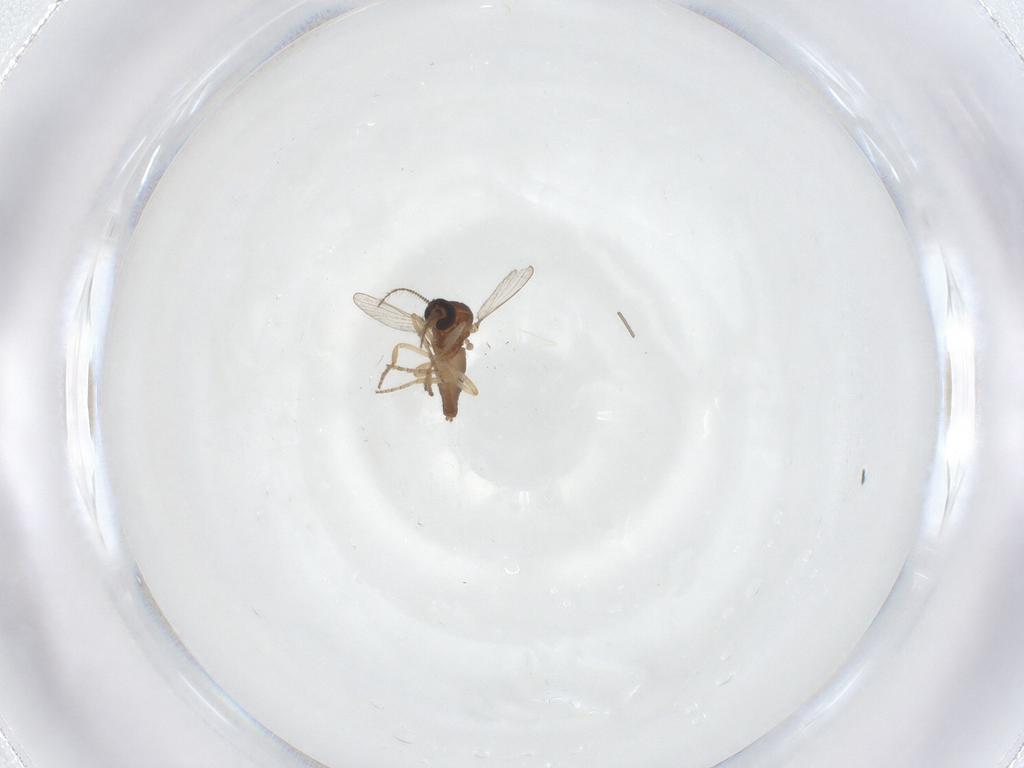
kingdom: Animalia
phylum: Arthropoda
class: Insecta
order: Diptera
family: Ceratopogonidae
